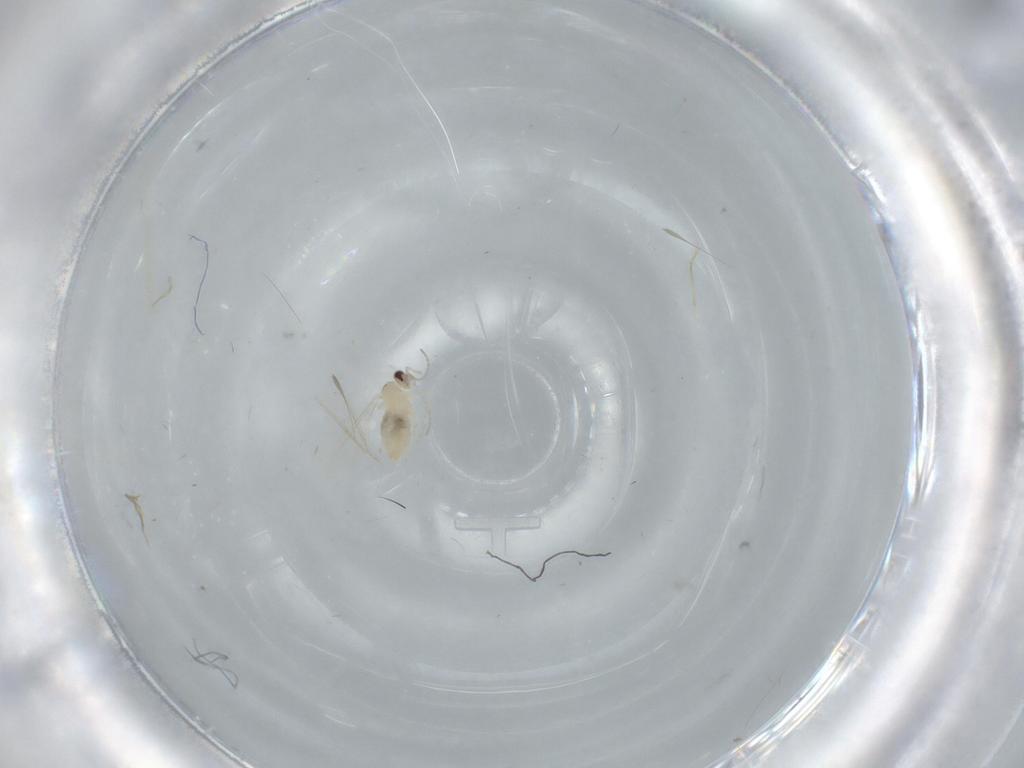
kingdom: Animalia
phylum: Arthropoda
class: Insecta
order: Diptera
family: Cecidomyiidae
